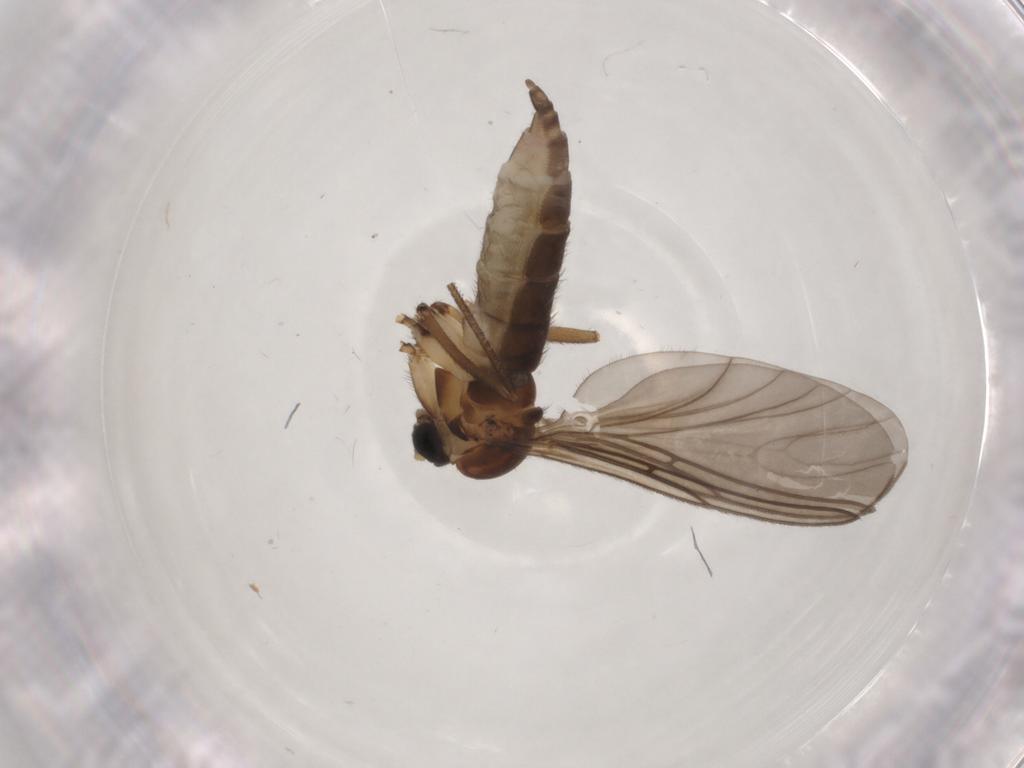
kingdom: Animalia
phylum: Arthropoda
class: Insecta
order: Diptera
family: Sciaridae
